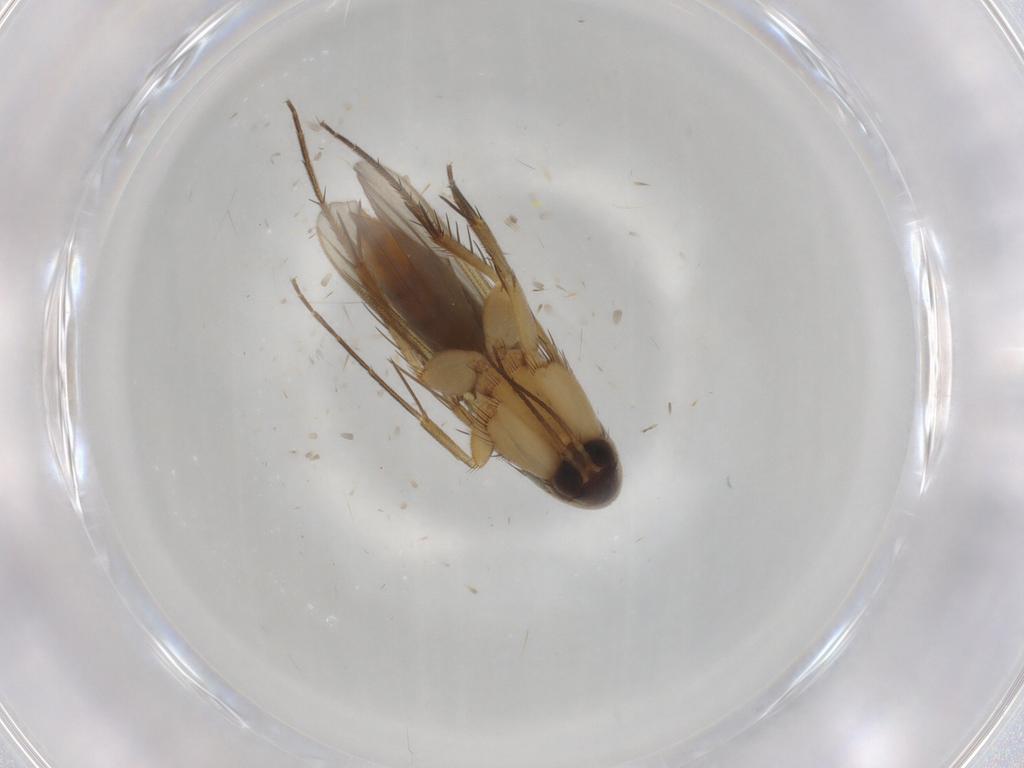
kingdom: Animalia
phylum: Arthropoda
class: Insecta
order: Diptera
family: Mycetophilidae
